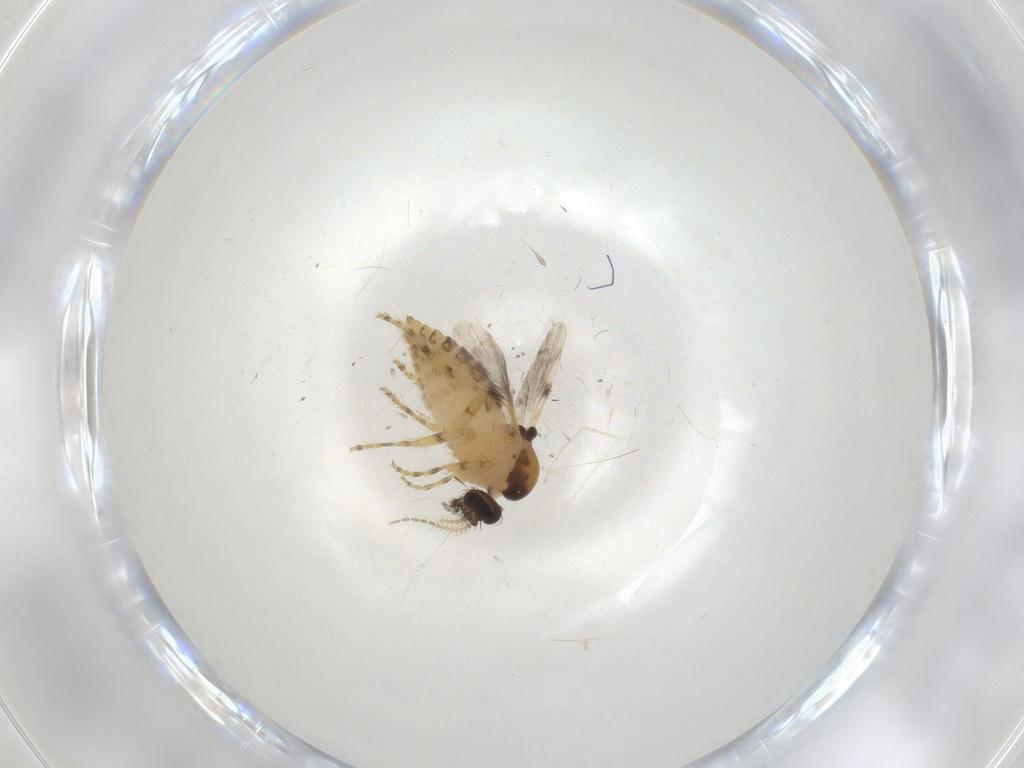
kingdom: Animalia
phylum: Arthropoda
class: Insecta
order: Diptera
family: Ceratopogonidae
